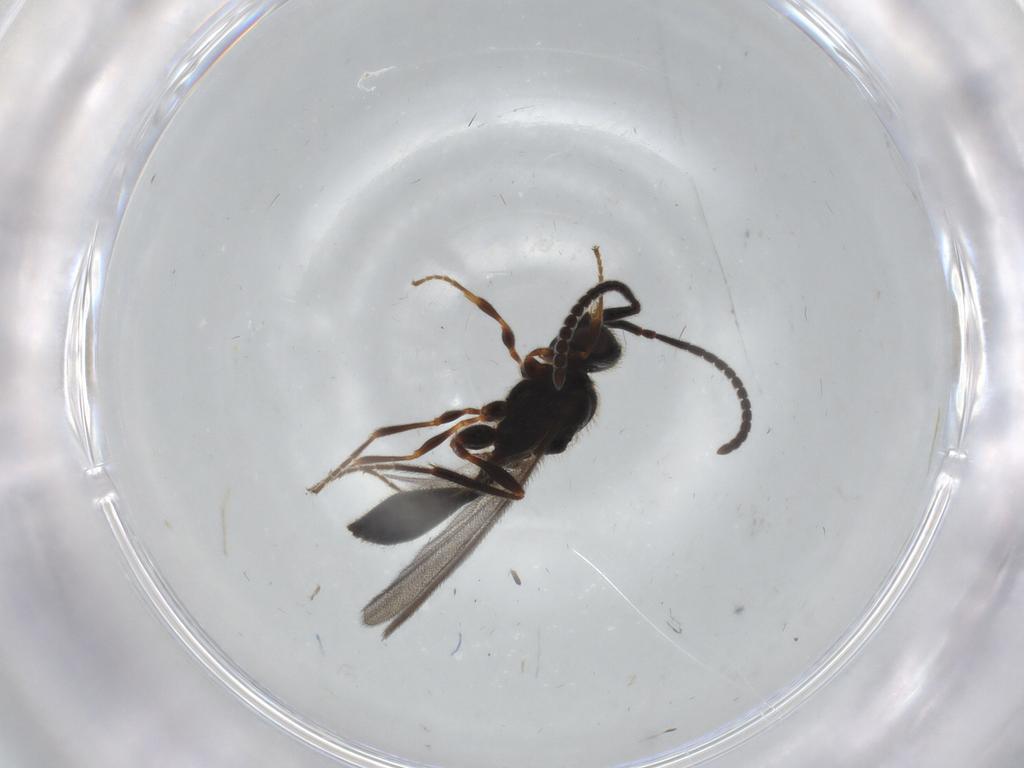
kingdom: Animalia
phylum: Arthropoda
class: Insecta
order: Hymenoptera
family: Diapriidae
